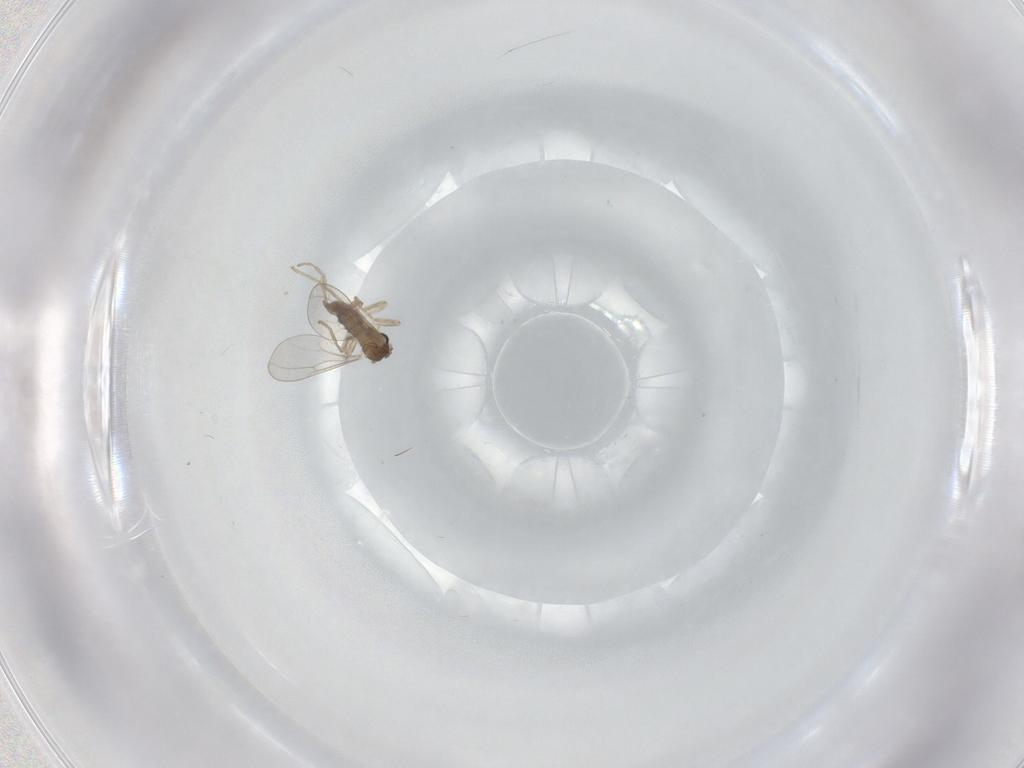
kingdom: Animalia
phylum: Arthropoda
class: Insecta
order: Diptera
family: Cecidomyiidae
